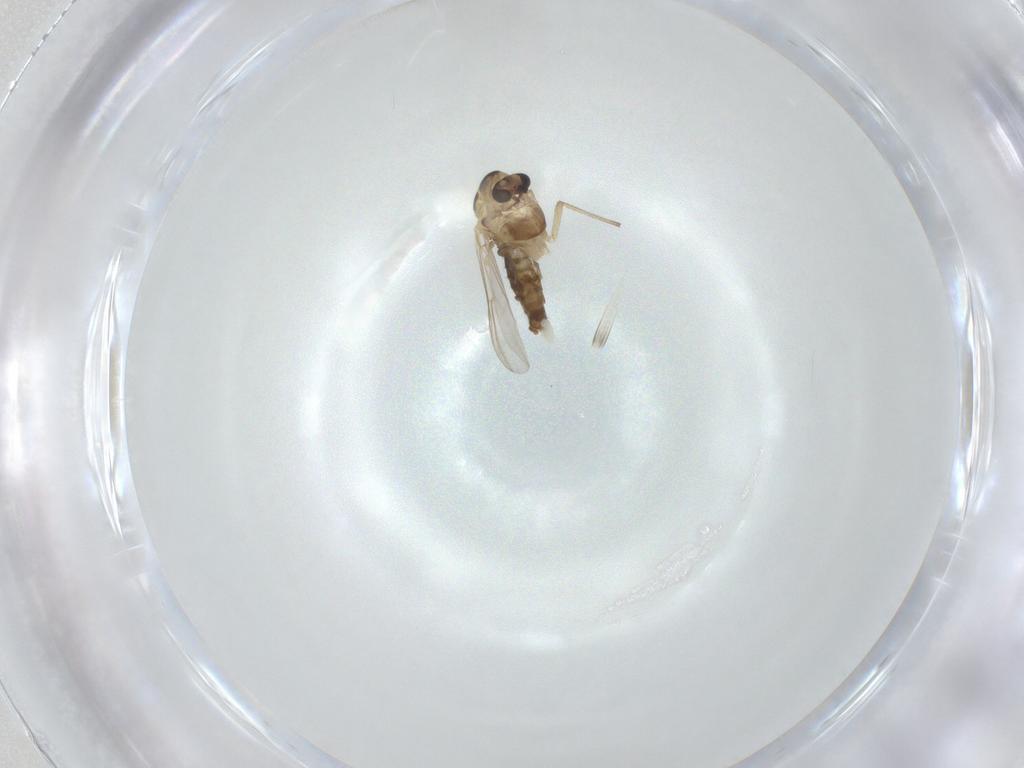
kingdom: Animalia
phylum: Arthropoda
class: Insecta
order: Diptera
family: Chironomidae
